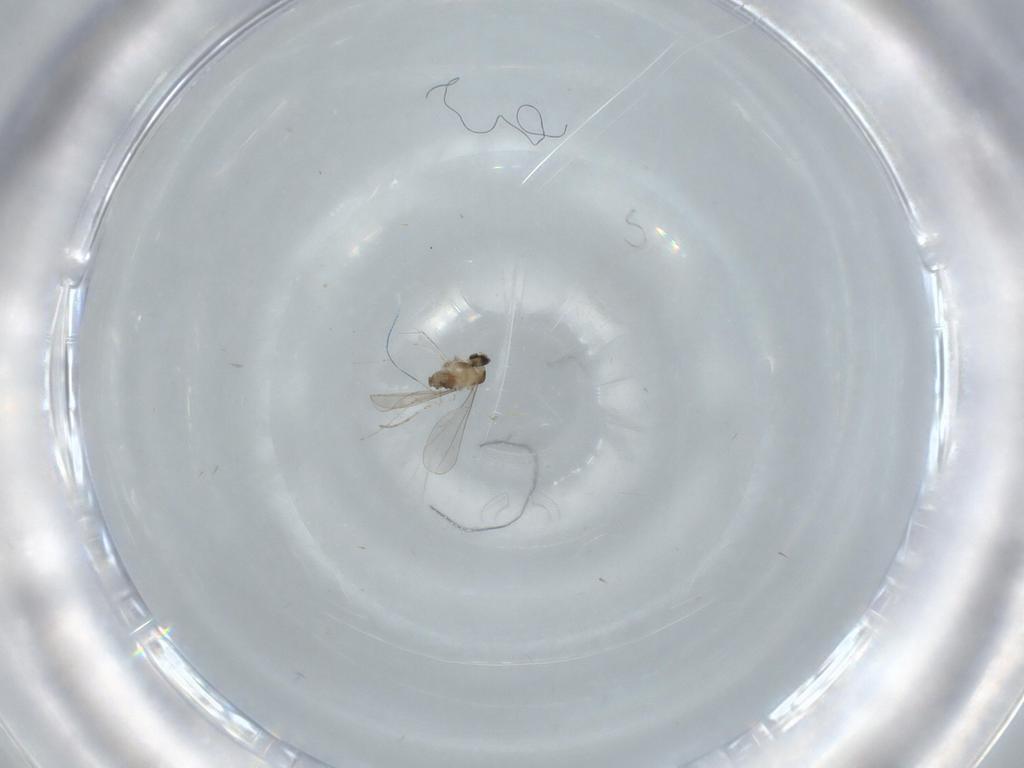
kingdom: Animalia
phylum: Arthropoda
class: Insecta
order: Diptera
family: Cecidomyiidae
